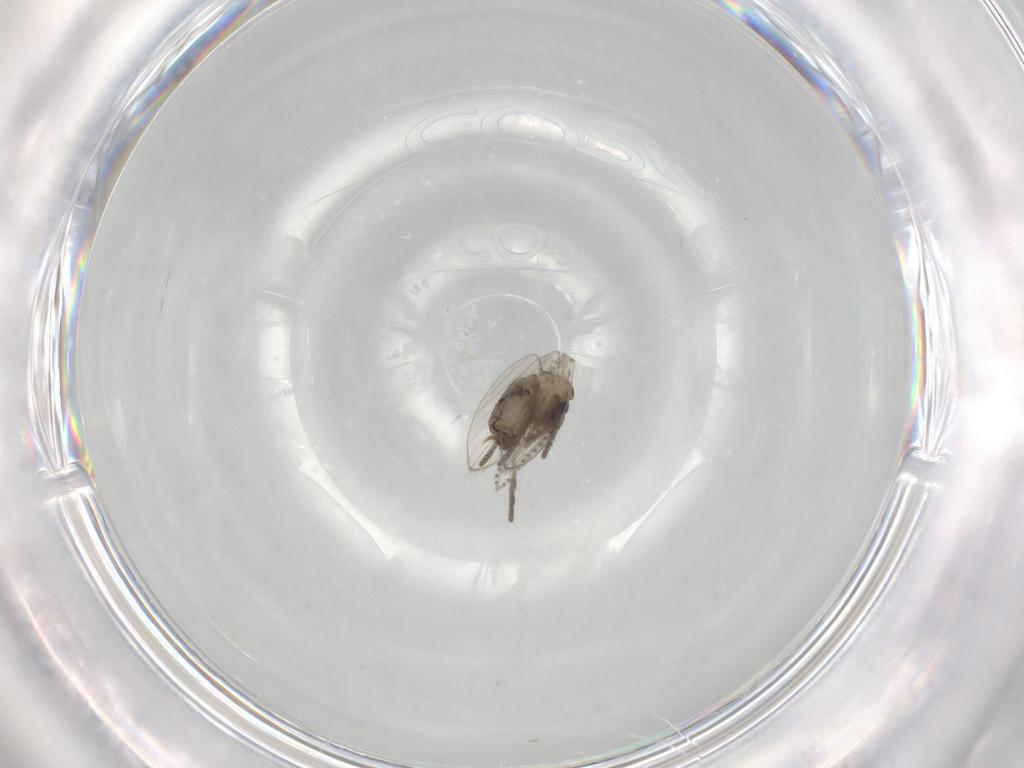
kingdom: Animalia
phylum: Arthropoda
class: Insecta
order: Diptera
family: Psychodidae
